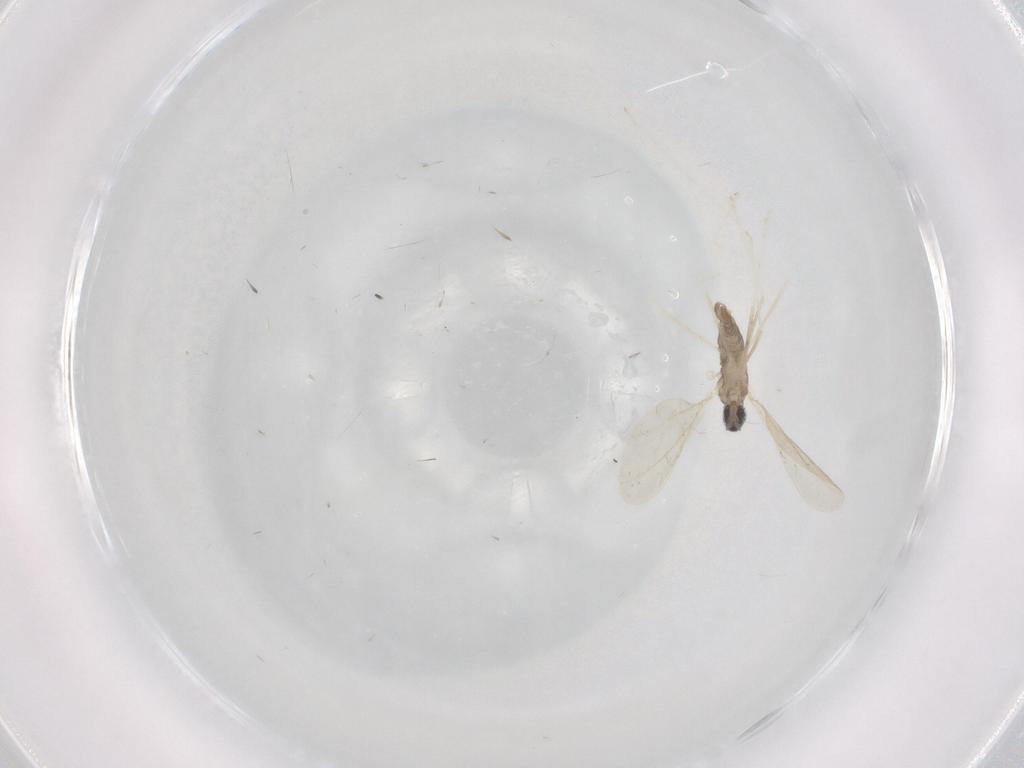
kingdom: Animalia
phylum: Arthropoda
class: Insecta
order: Diptera
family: Cecidomyiidae
